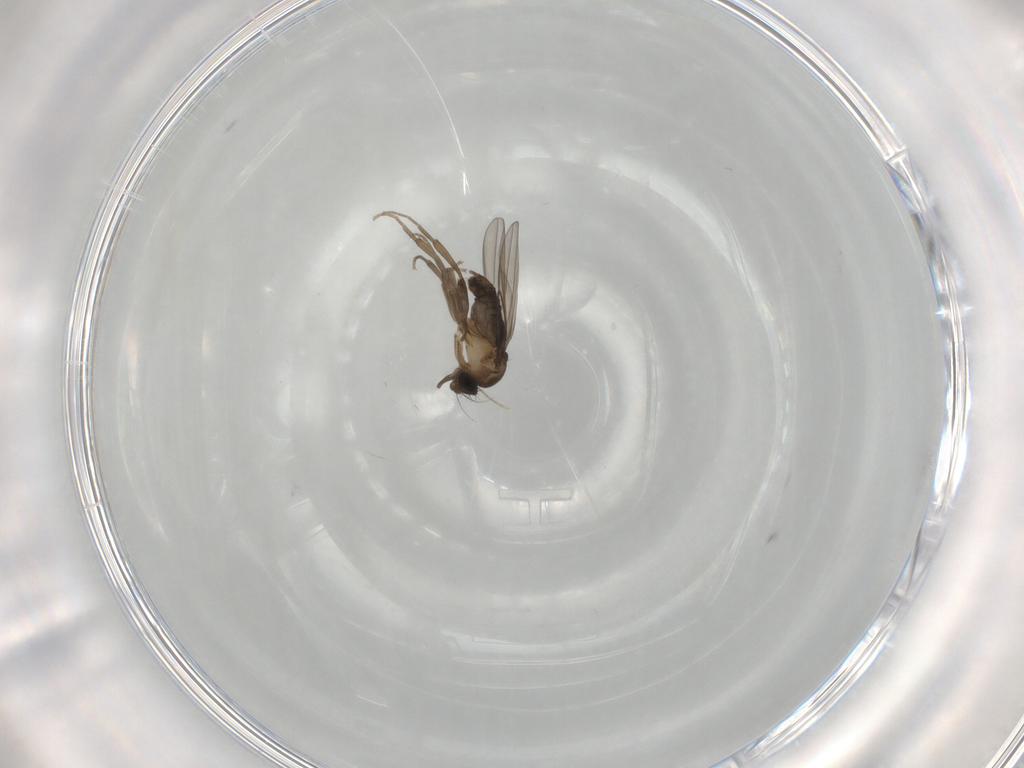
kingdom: Animalia
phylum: Arthropoda
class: Insecta
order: Diptera
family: Phoridae
